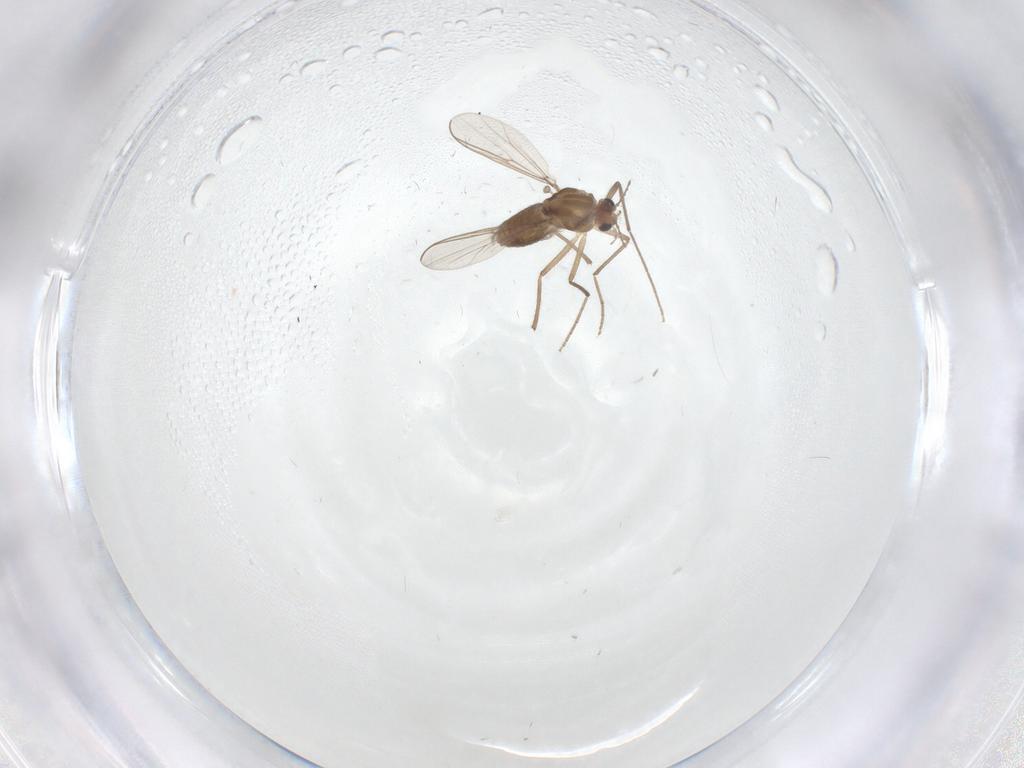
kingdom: Animalia
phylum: Arthropoda
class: Insecta
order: Diptera
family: Chironomidae
